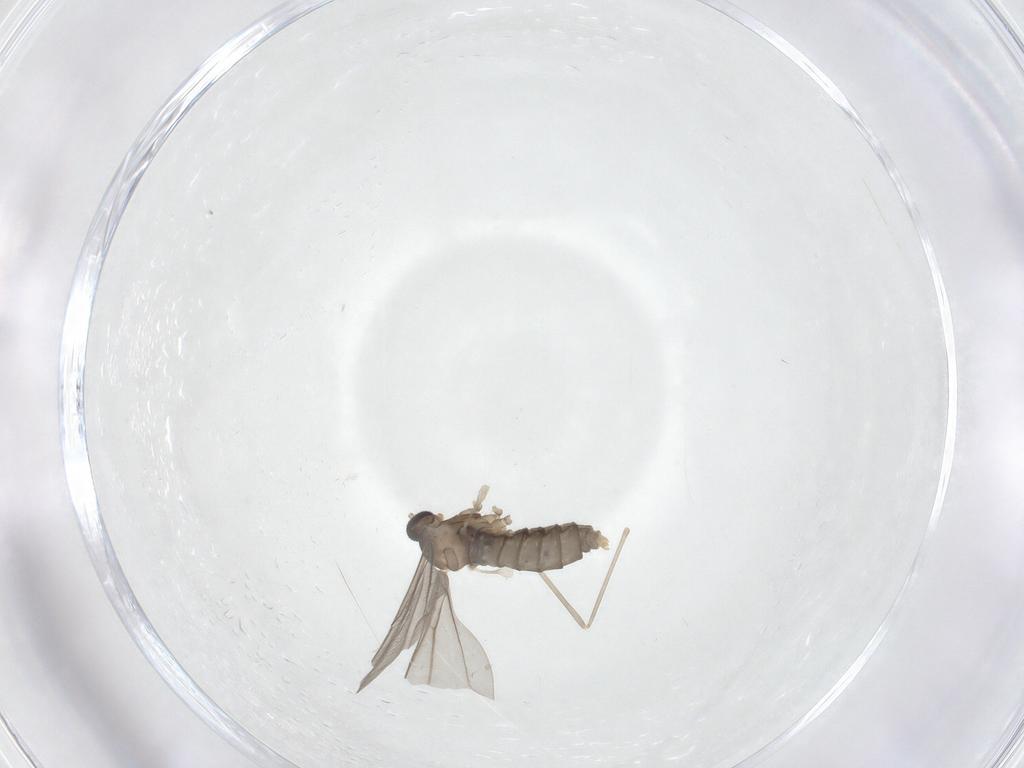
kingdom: Animalia
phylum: Arthropoda
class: Insecta
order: Diptera
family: Cecidomyiidae
